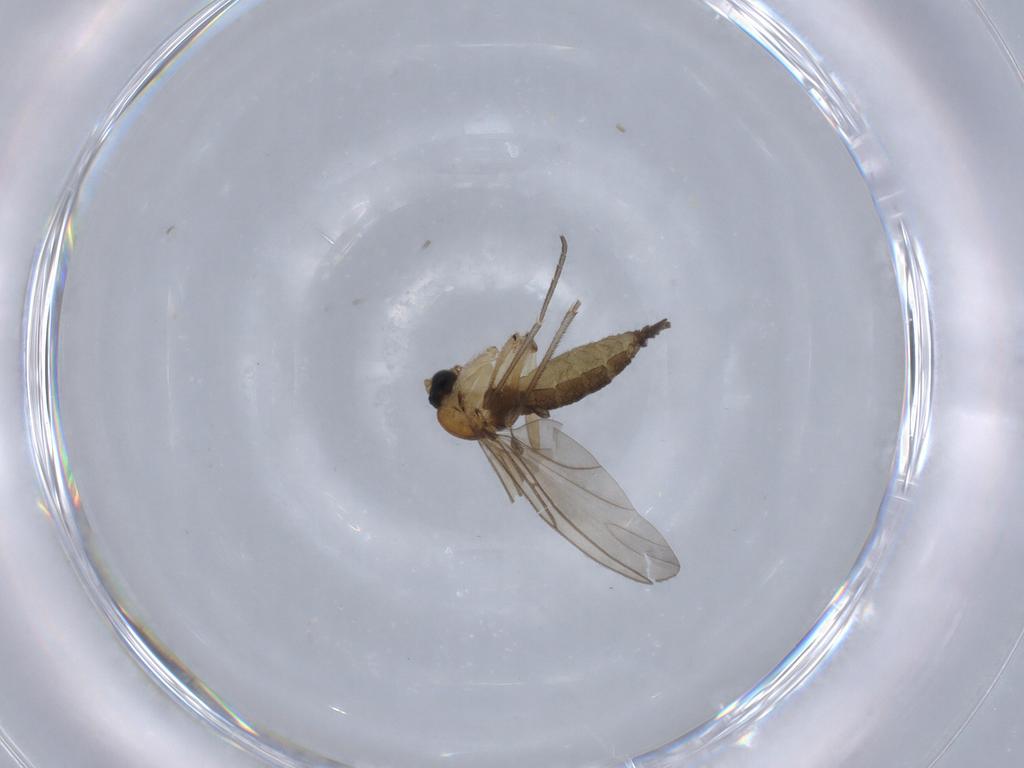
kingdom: Animalia
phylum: Arthropoda
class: Insecta
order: Diptera
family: Sciaridae
